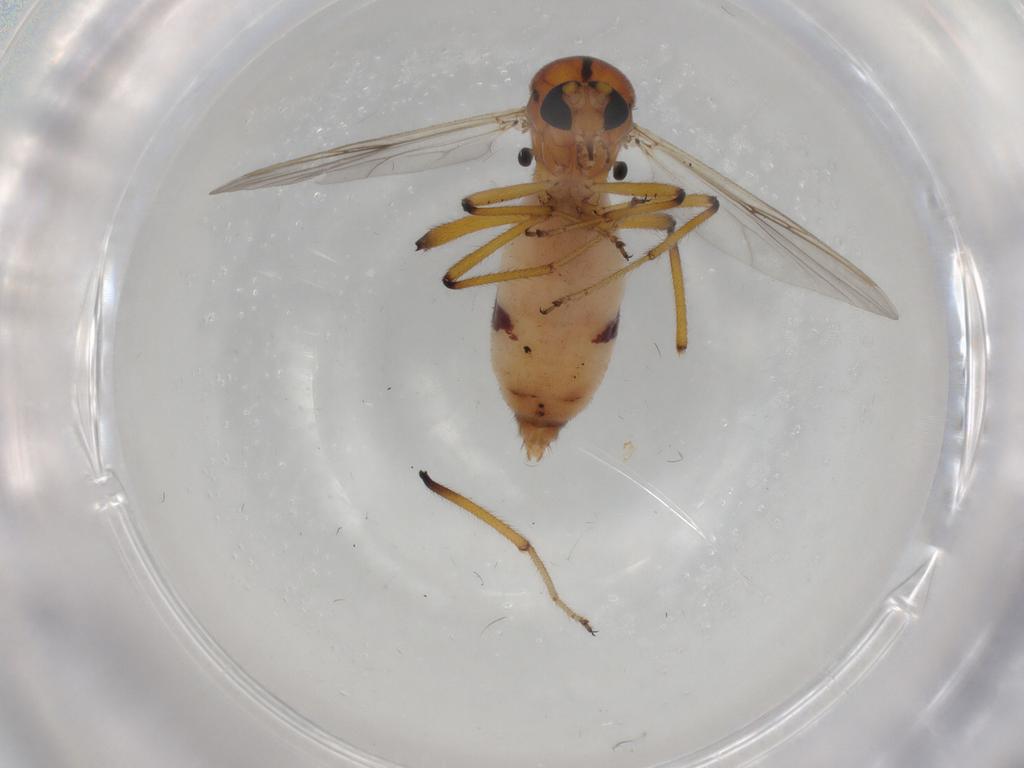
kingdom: Animalia
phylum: Arthropoda
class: Insecta
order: Diptera
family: Ceratopogonidae
